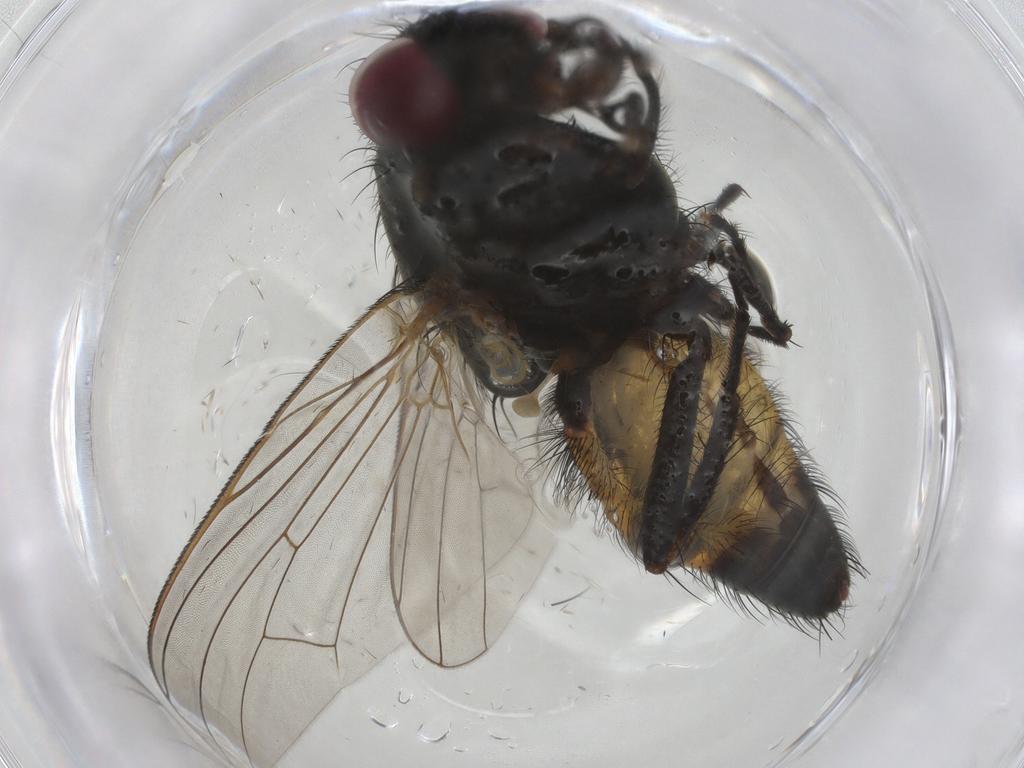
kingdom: Animalia
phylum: Arthropoda
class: Insecta
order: Diptera
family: Fannia
